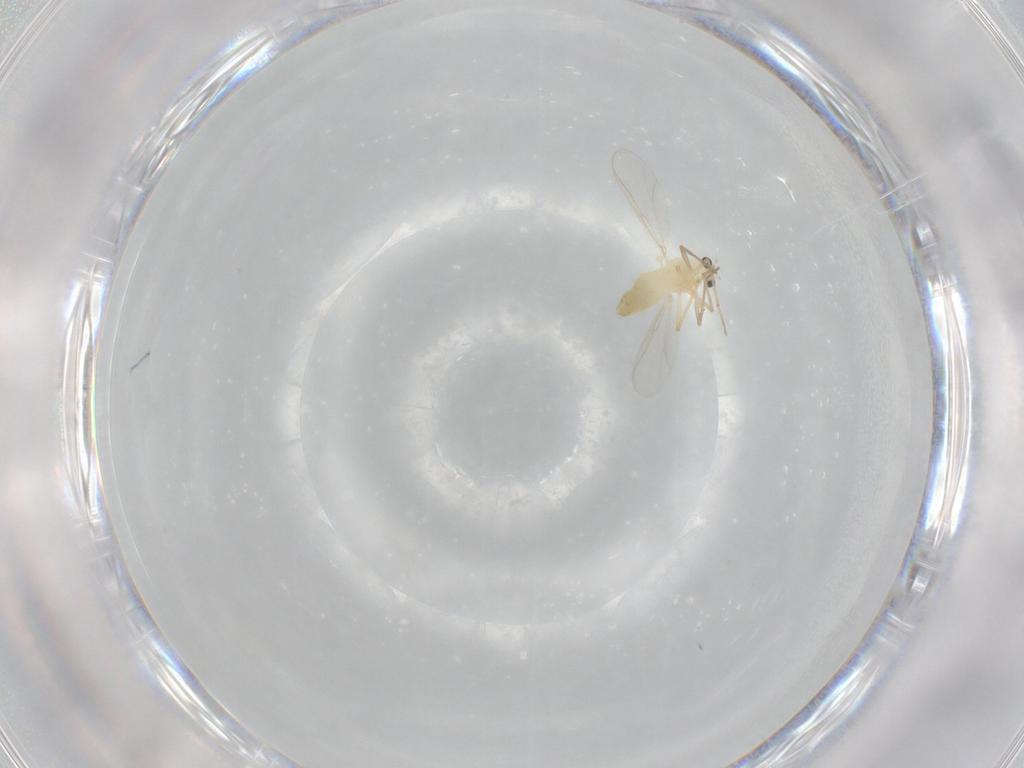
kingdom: Animalia
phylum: Arthropoda
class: Insecta
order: Diptera
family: Chironomidae
